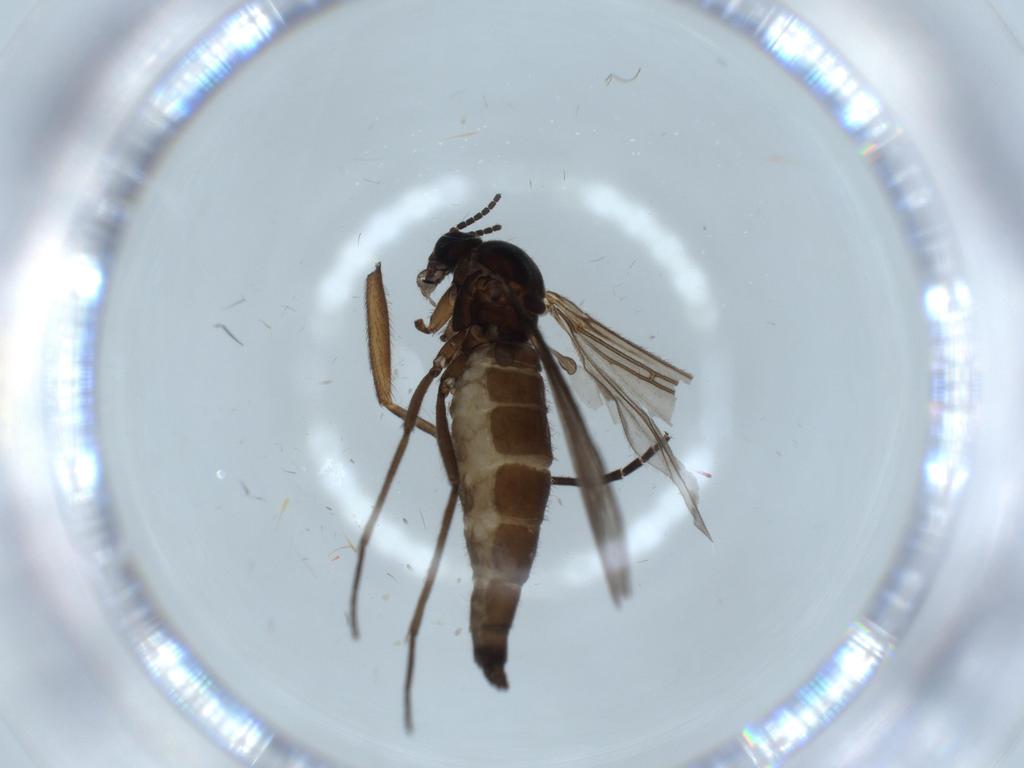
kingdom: Animalia
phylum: Arthropoda
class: Insecta
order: Diptera
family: Sciaridae
